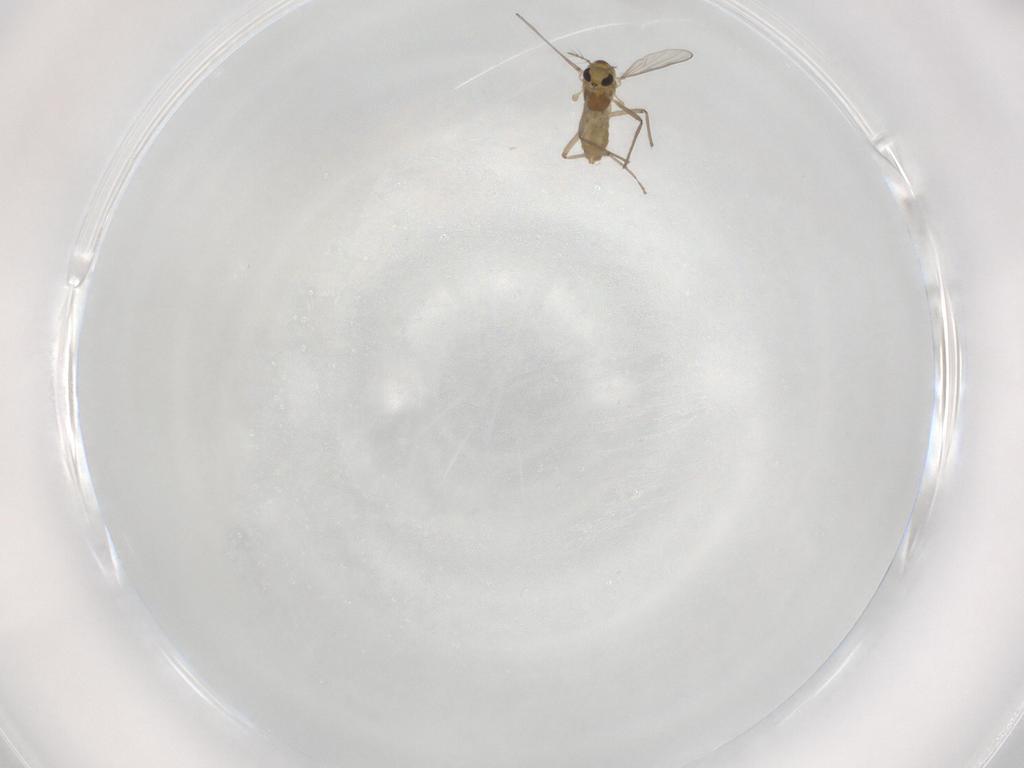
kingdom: Animalia
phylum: Arthropoda
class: Insecta
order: Diptera
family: Chironomidae
